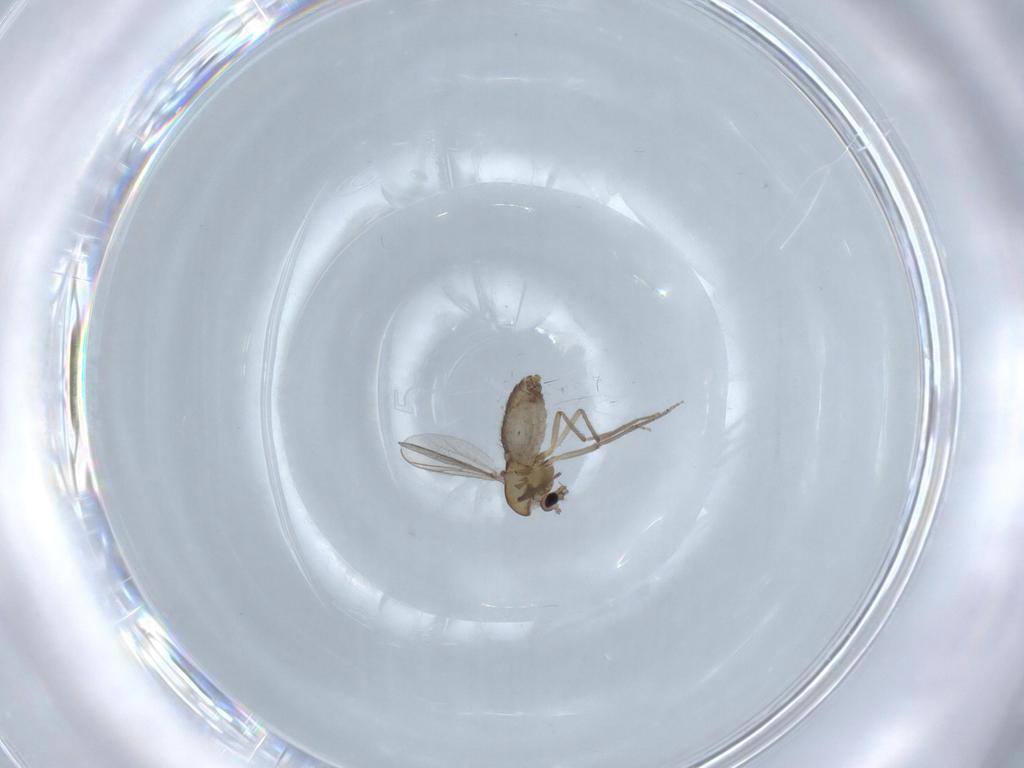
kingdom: Animalia
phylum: Arthropoda
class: Insecta
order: Diptera
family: Chironomidae
